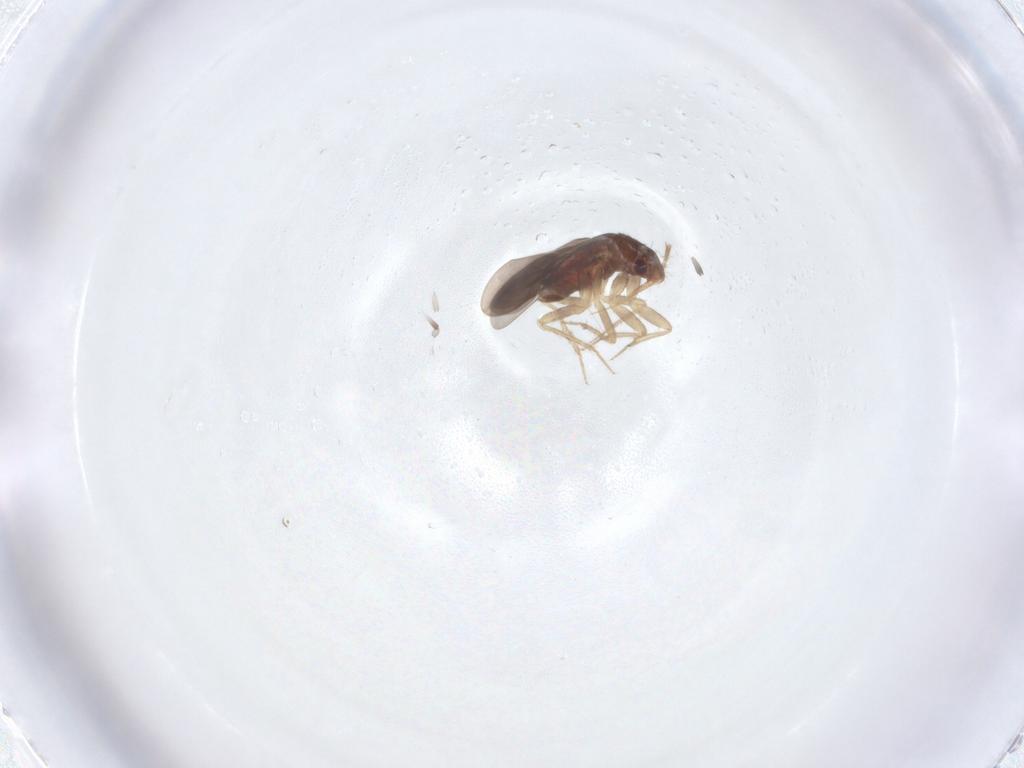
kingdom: Animalia
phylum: Arthropoda
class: Insecta
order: Hemiptera
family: Ceratocombidae
